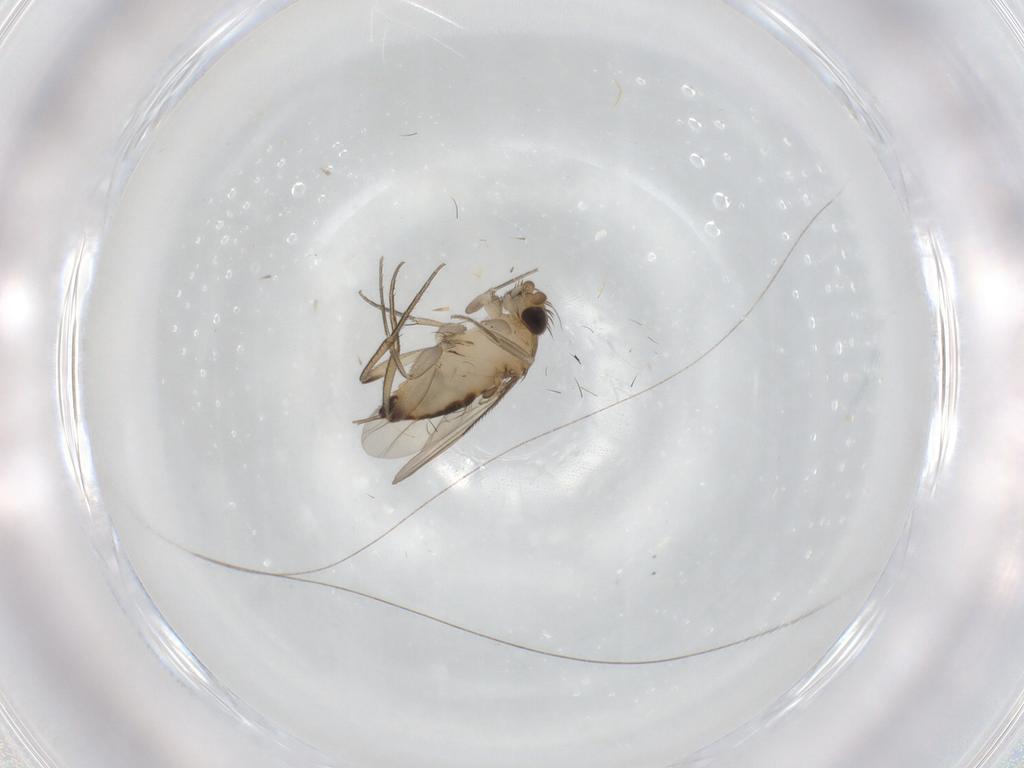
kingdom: Animalia
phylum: Arthropoda
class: Insecta
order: Diptera
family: Phoridae
